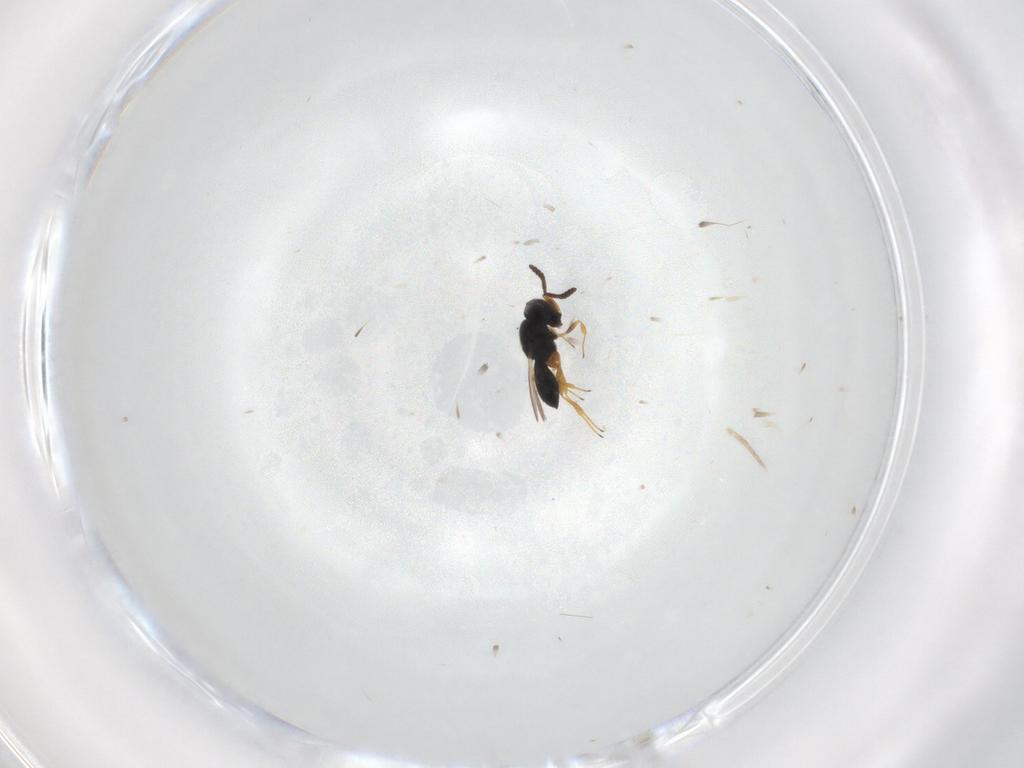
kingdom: Animalia
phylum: Arthropoda
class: Insecta
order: Hymenoptera
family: Scelionidae
